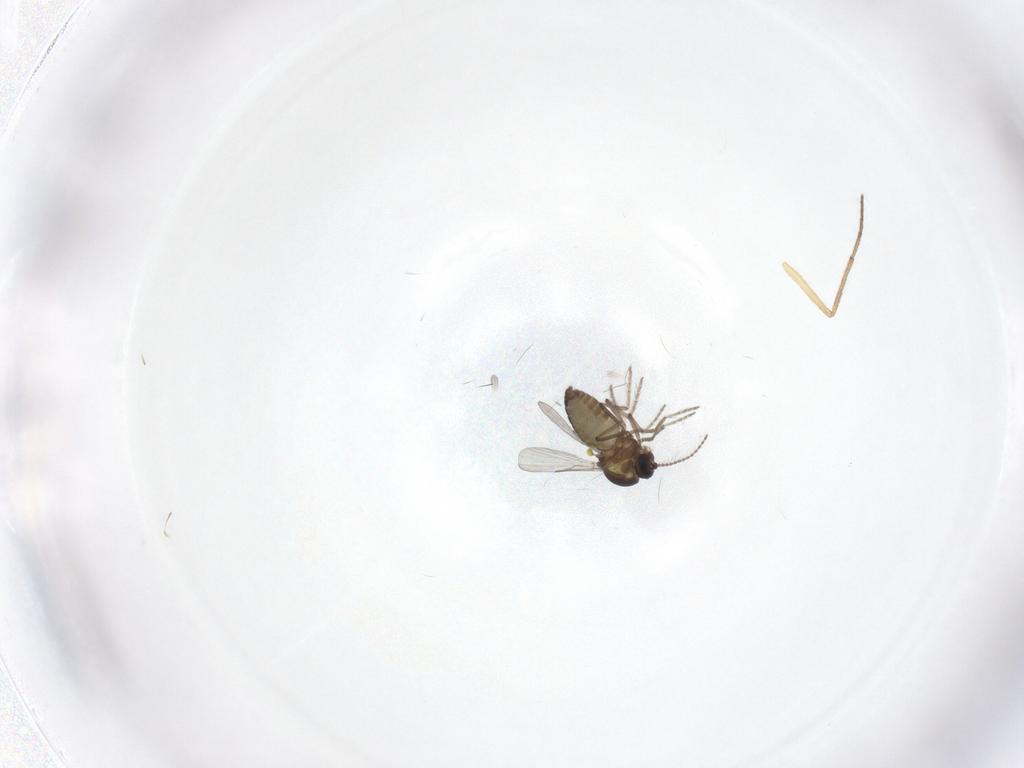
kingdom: Animalia
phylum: Arthropoda
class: Insecta
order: Diptera
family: Ceratopogonidae
